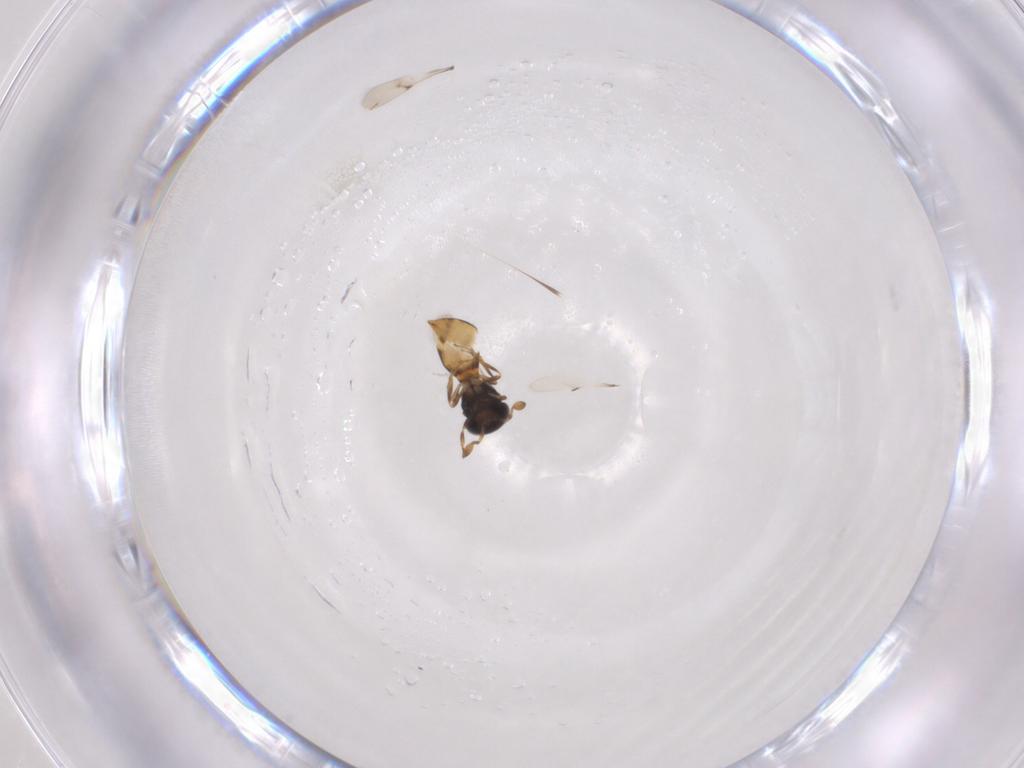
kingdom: Animalia
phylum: Arthropoda
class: Insecta
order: Hymenoptera
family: Scelionidae
